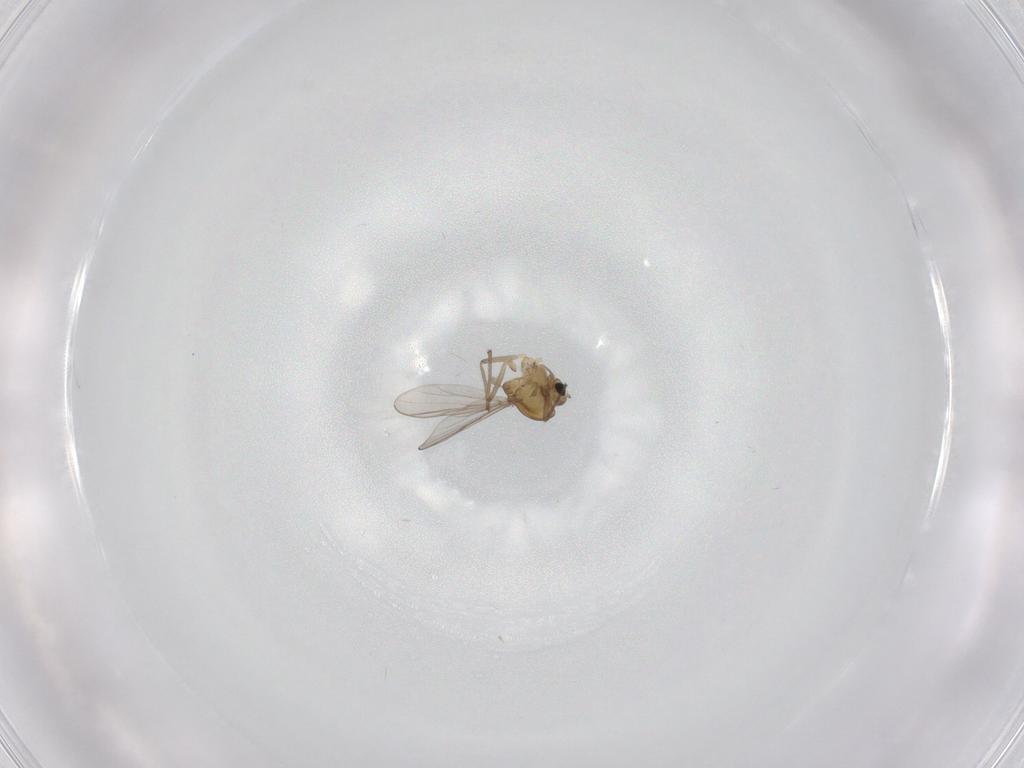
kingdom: Animalia
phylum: Arthropoda
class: Insecta
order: Diptera
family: Chironomidae
